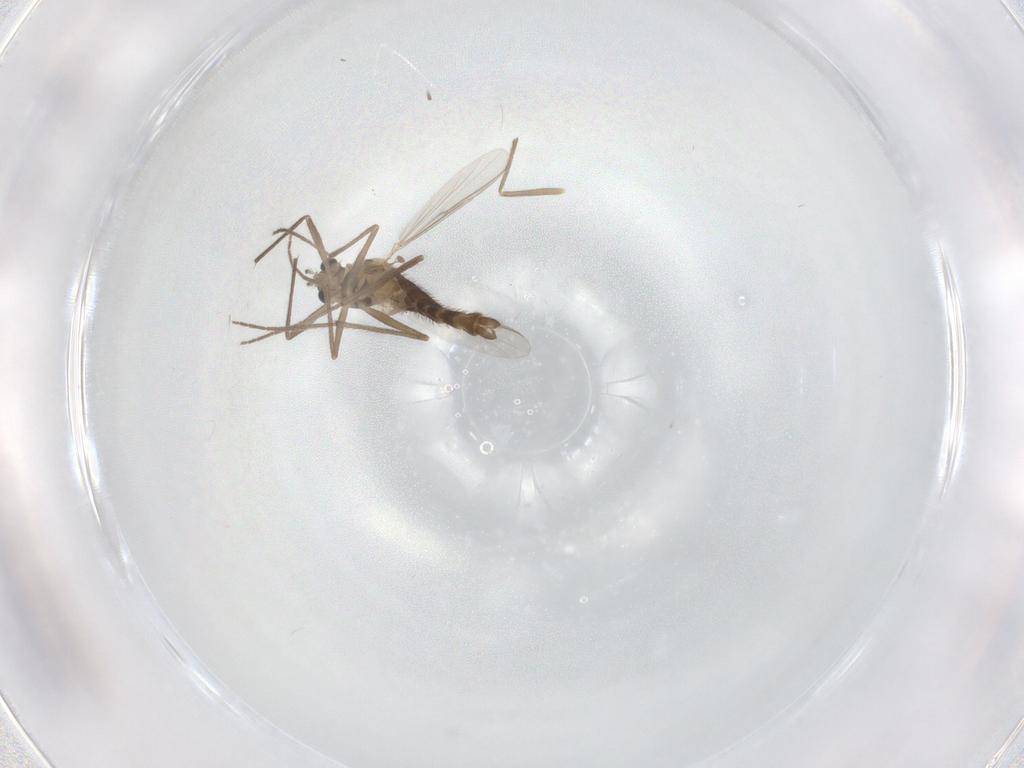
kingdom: Animalia
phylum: Arthropoda
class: Insecta
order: Diptera
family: Chironomidae
